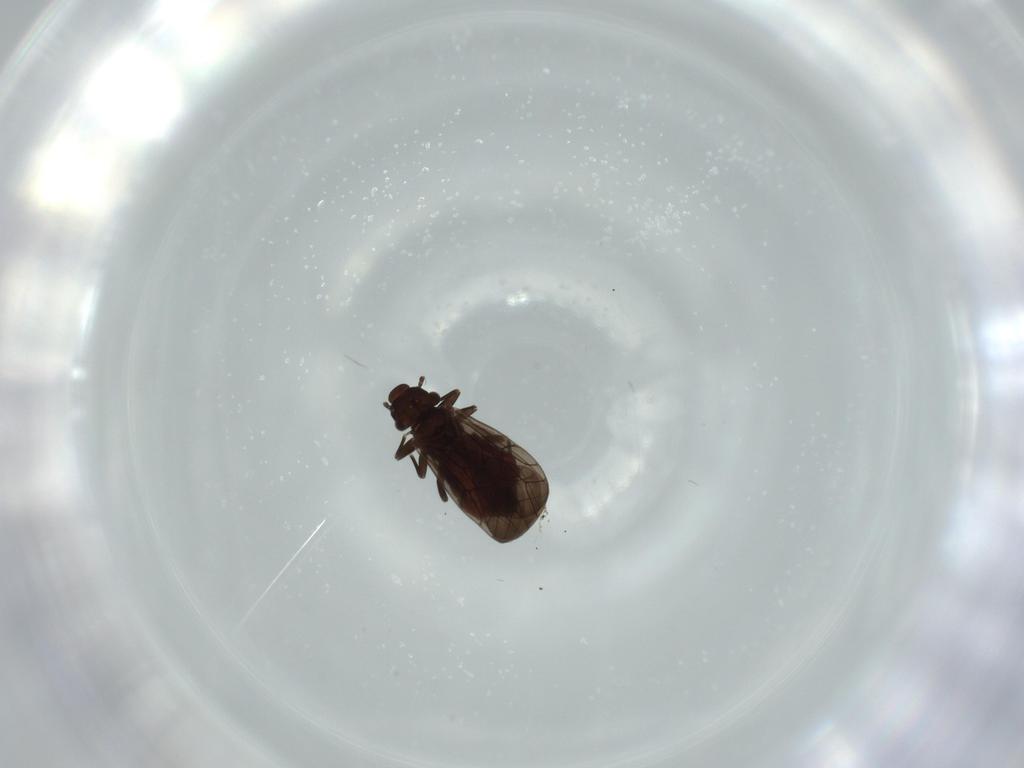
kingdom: Animalia
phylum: Arthropoda
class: Insecta
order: Psocodea
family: Lepidopsocidae
